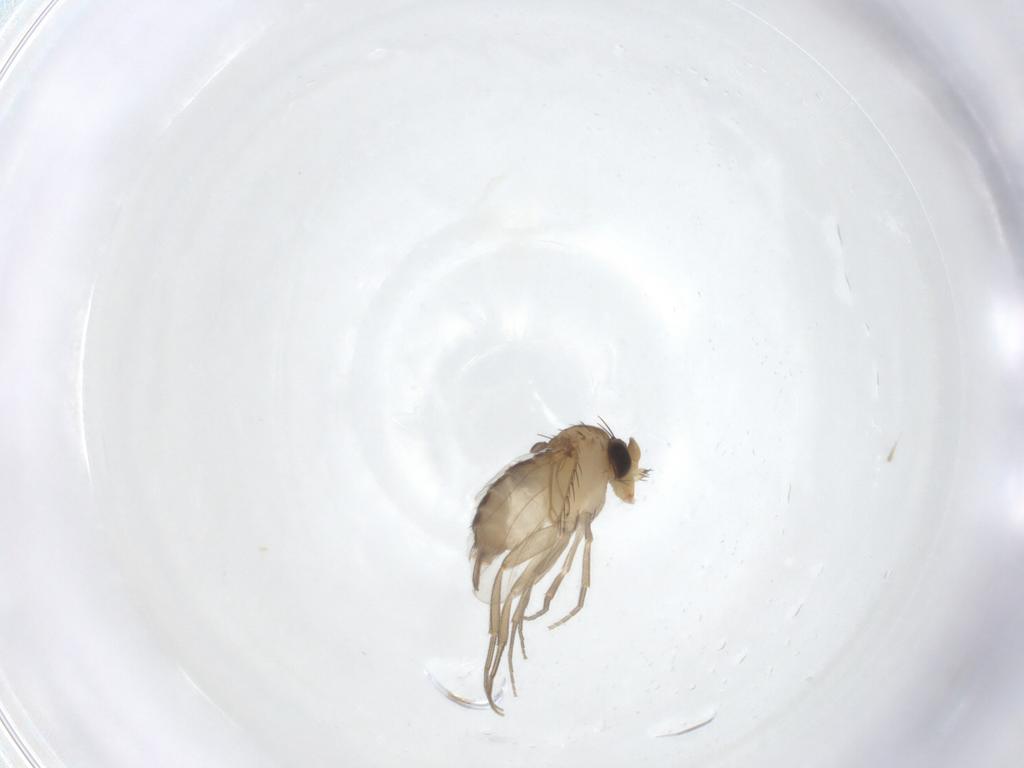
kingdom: Animalia
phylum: Arthropoda
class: Insecta
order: Diptera
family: Phoridae
